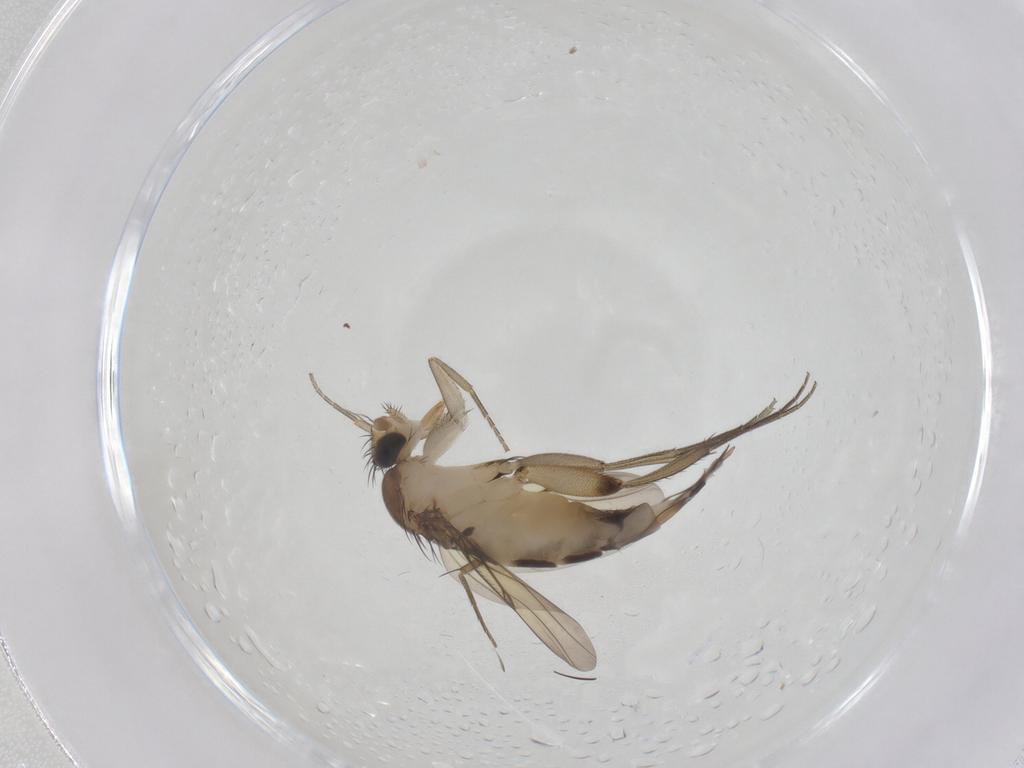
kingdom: Animalia
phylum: Arthropoda
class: Insecta
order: Diptera
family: Phoridae
